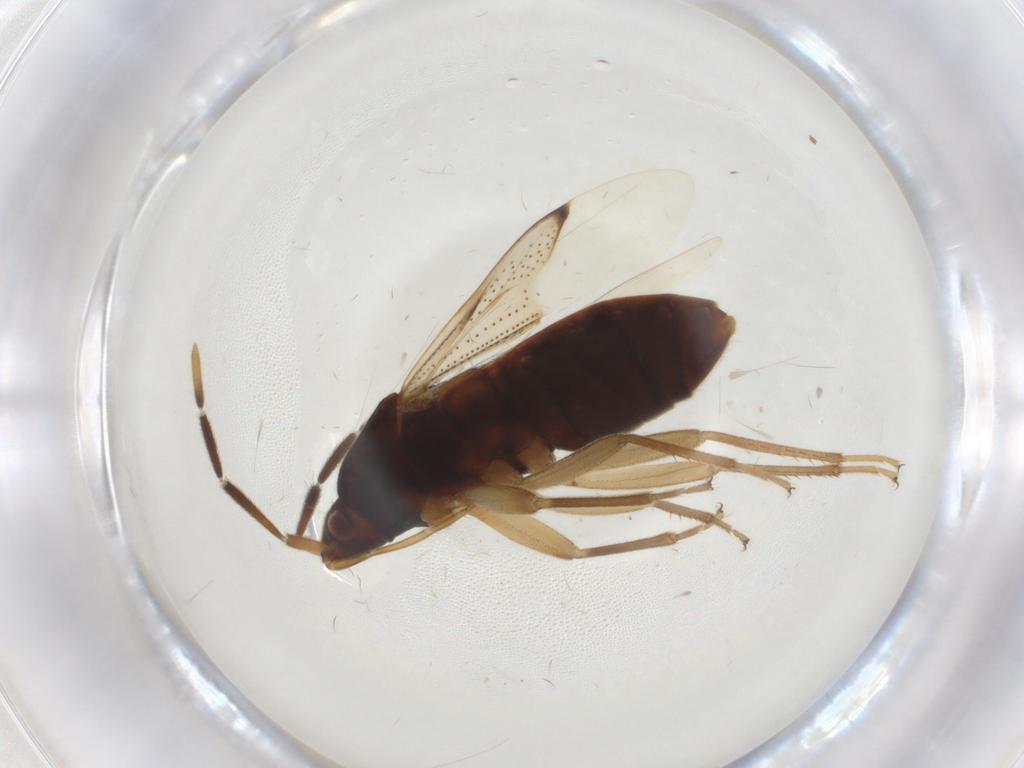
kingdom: Animalia
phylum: Arthropoda
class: Insecta
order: Hemiptera
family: Rhyparochromidae
